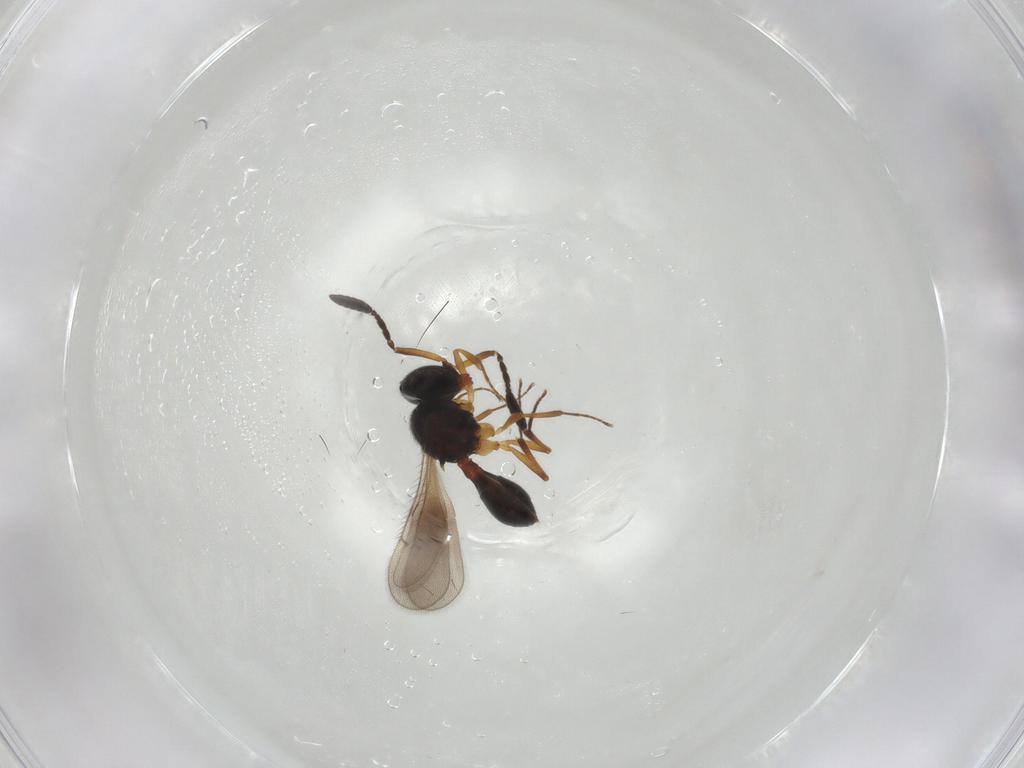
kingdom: Animalia
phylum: Arthropoda
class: Insecta
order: Hymenoptera
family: Scelionidae
